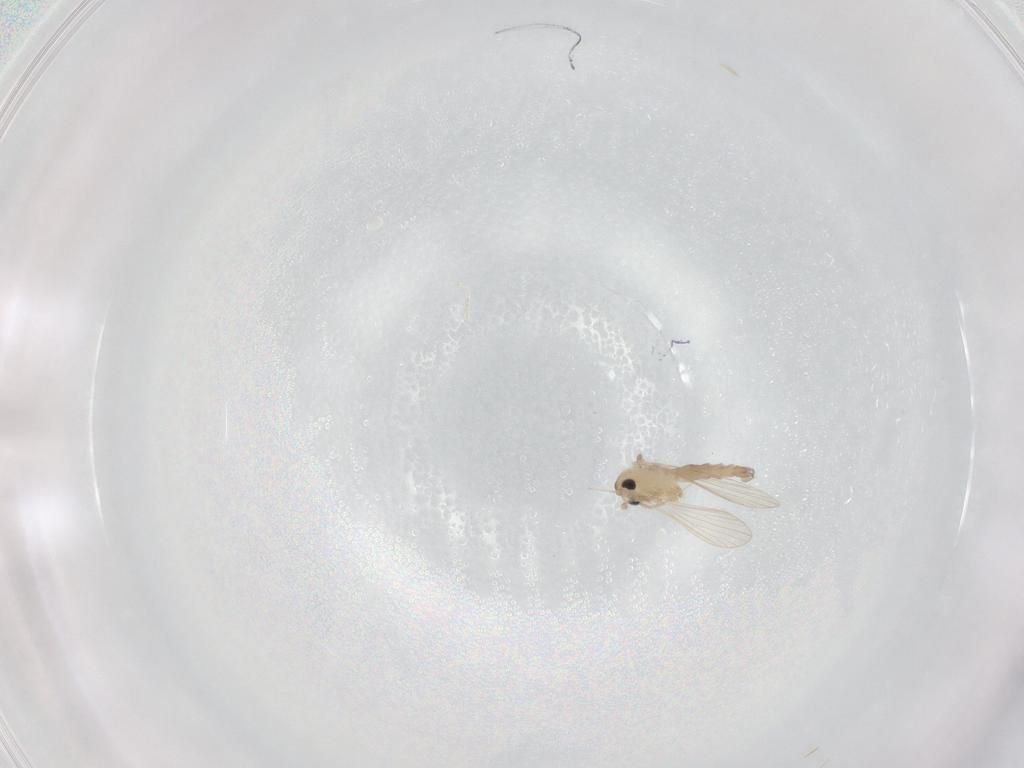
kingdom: Animalia
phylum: Arthropoda
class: Insecta
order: Diptera
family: Psychodidae
